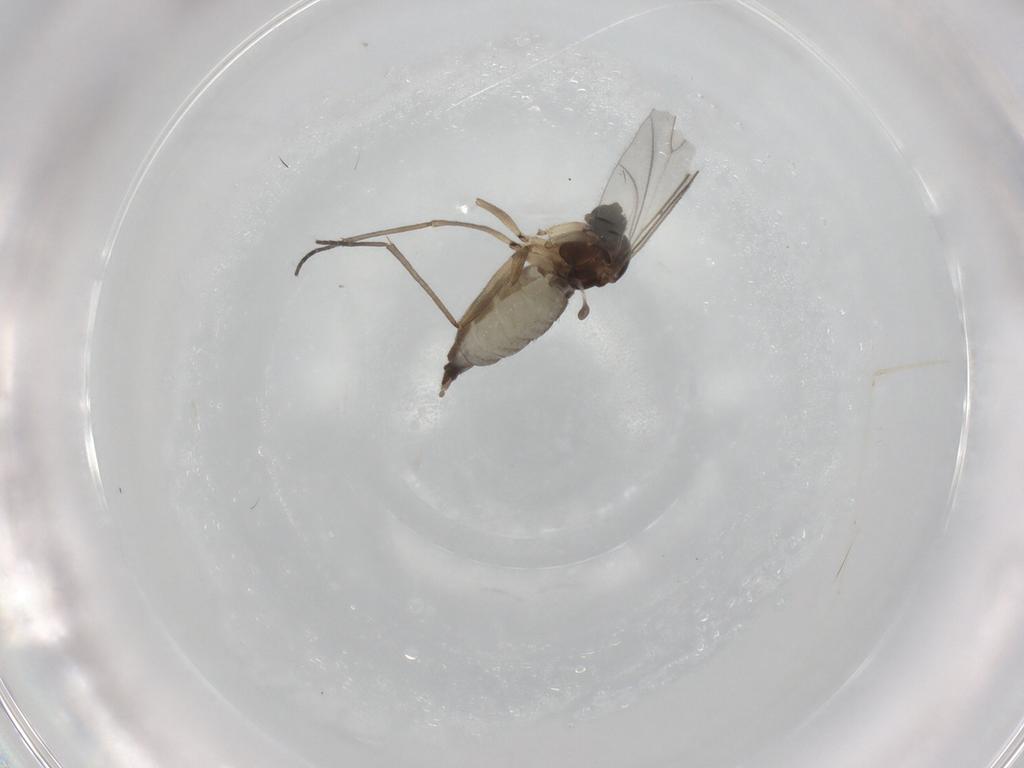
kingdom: Animalia
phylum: Arthropoda
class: Insecta
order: Diptera
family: Cecidomyiidae
